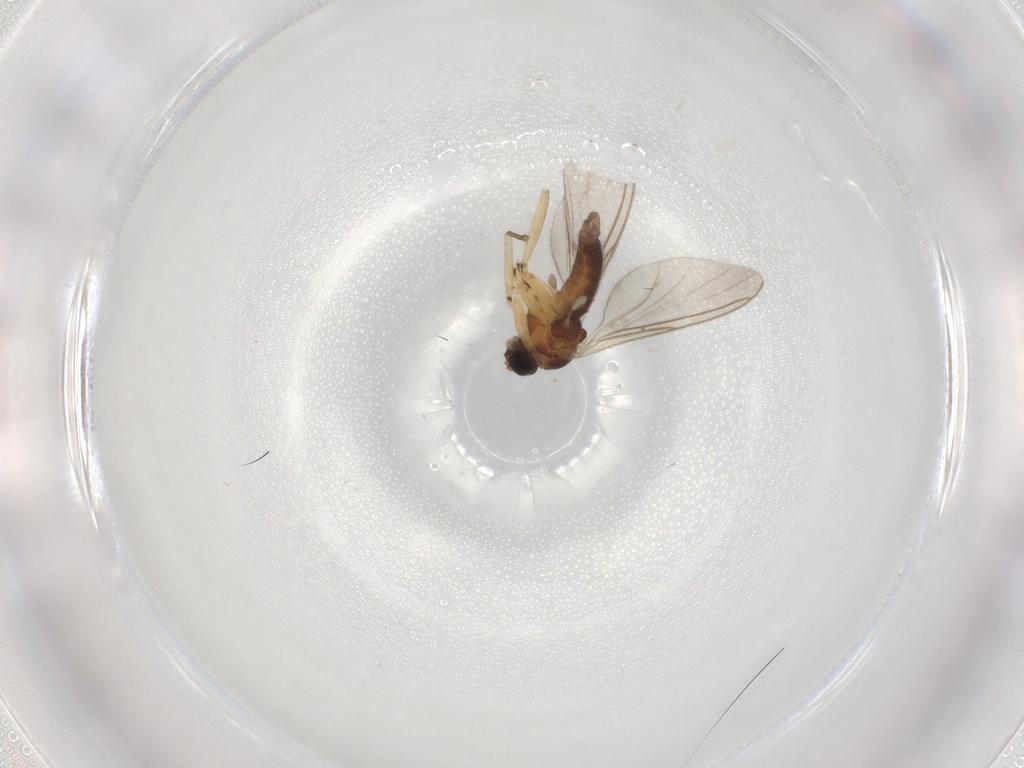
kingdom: Animalia
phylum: Arthropoda
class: Insecta
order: Diptera
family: Sciaridae
